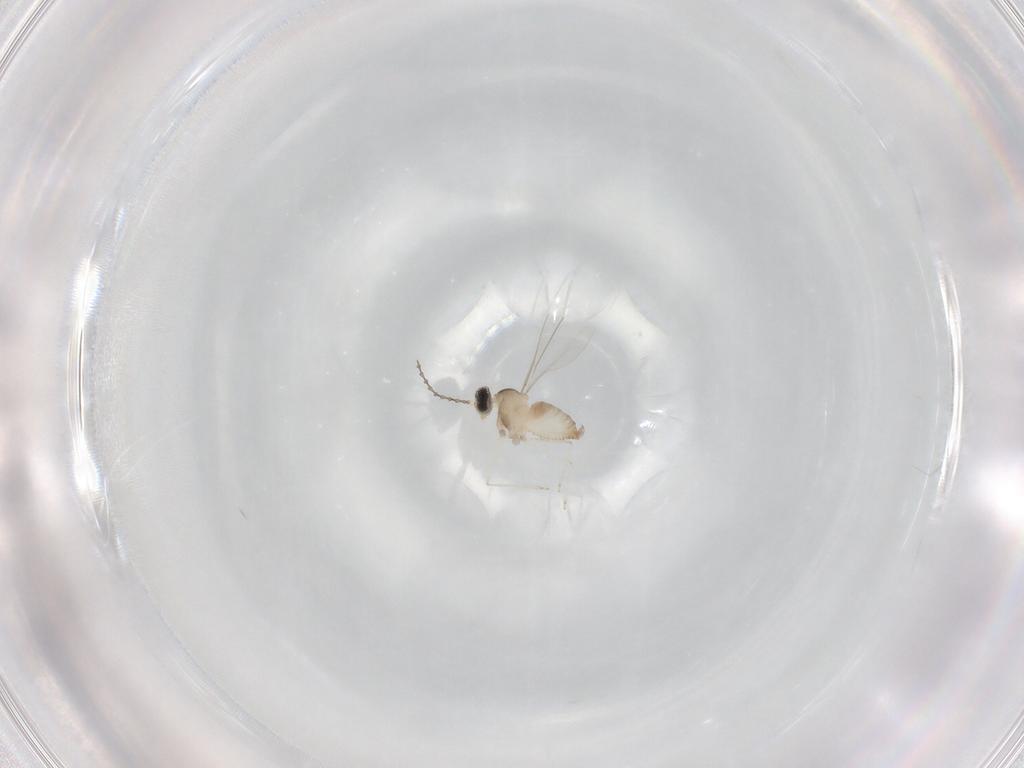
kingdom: Animalia
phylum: Arthropoda
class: Insecta
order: Diptera
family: Cecidomyiidae
